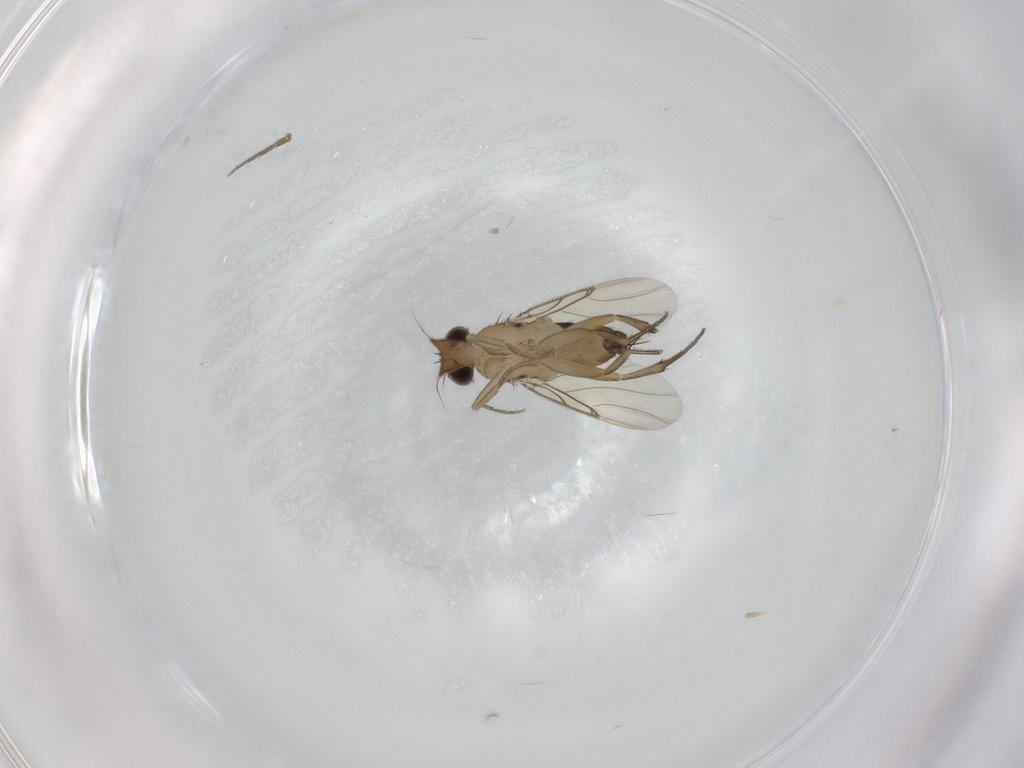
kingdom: Animalia
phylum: Arthropoda
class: Insecta
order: Diptera
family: Phoridae
